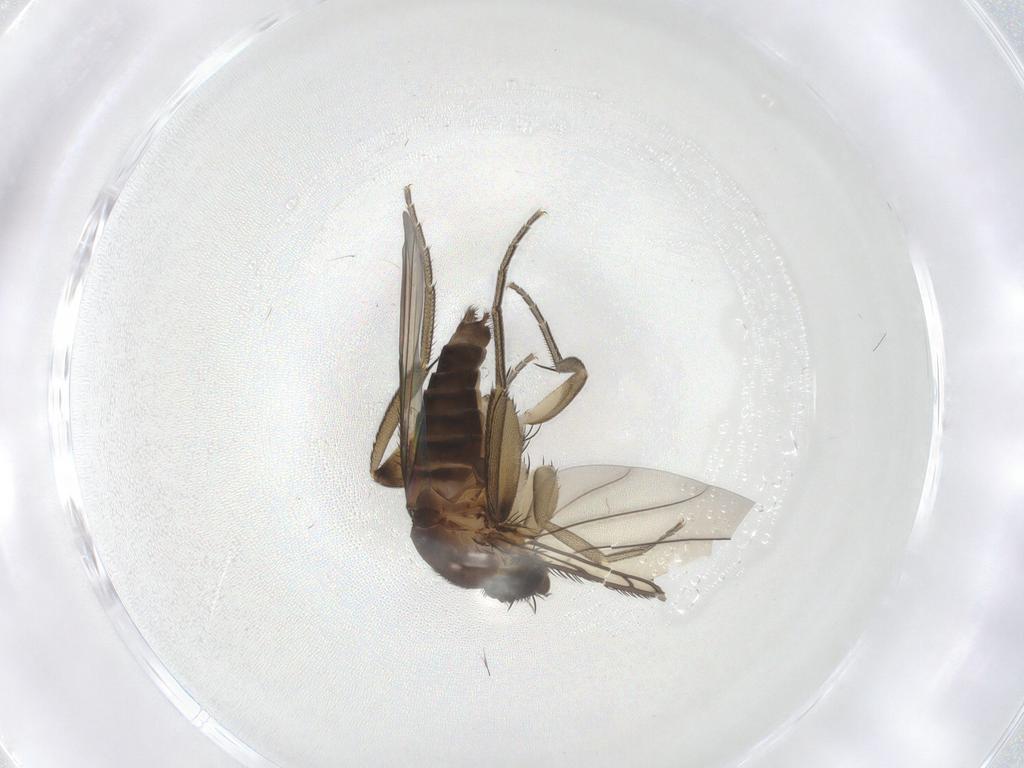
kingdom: Animalia
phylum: Arthropoda
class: Insecta
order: Diptera
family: Phoridae
